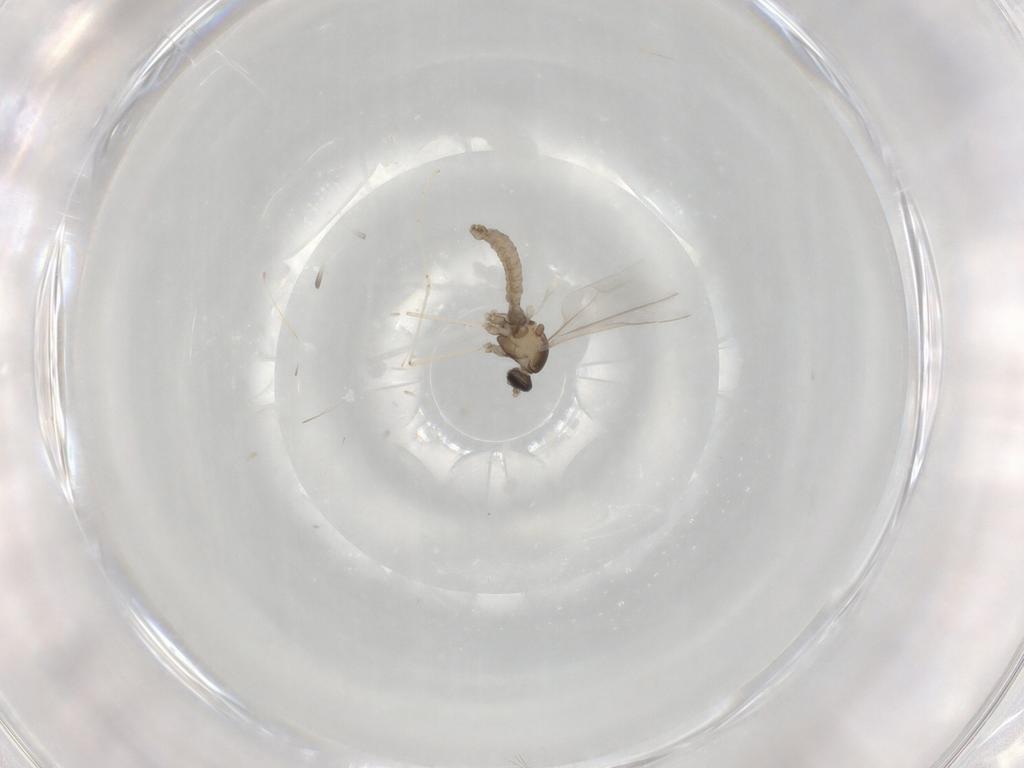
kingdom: Animalia
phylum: Arthropoda
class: Insecta
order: Diptera
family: Cecidomyiidae
